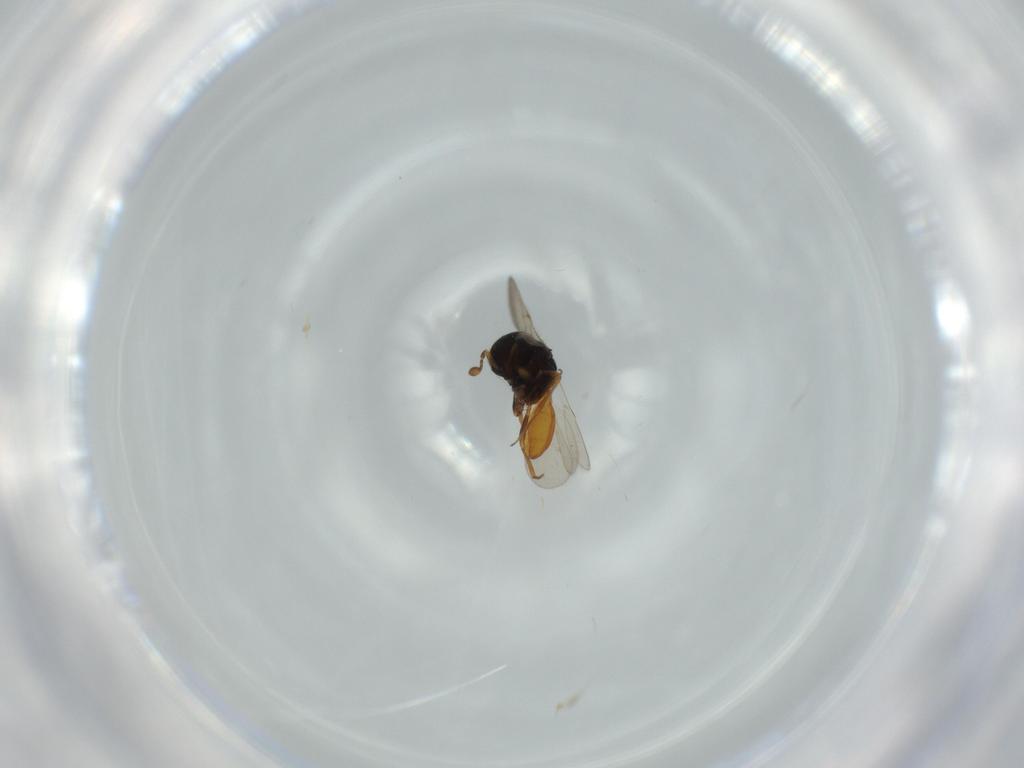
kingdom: Animalia
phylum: Arthropoda
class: Insecta
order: Hymenoptera
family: Scelionidae
